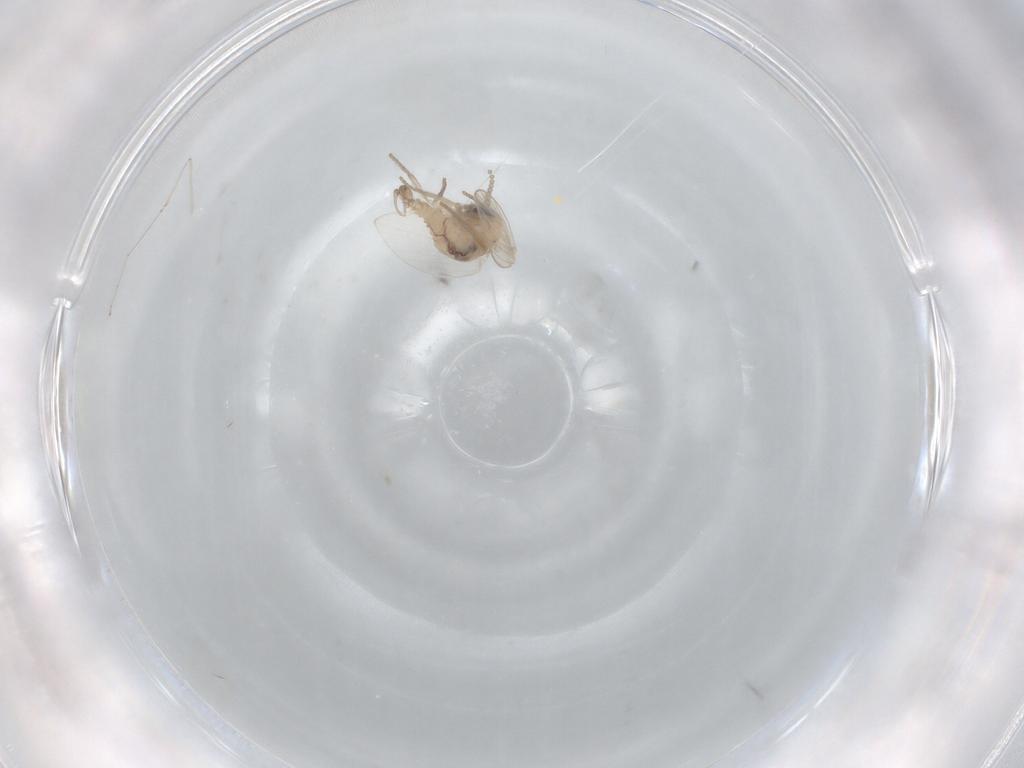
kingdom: Animalia
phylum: Arthropoda
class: Insecta
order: Diptera
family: Psychodidae
